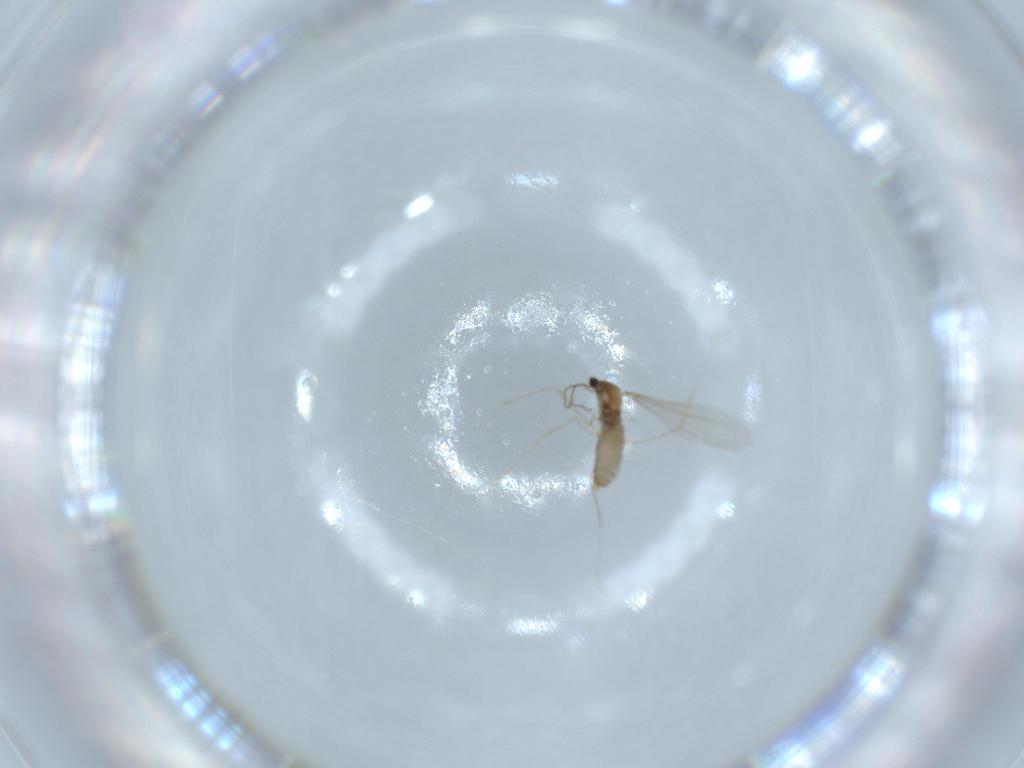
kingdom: Animalia
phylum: Arthropoda
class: Insecta
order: Diptera
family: Cecidomyiidae
